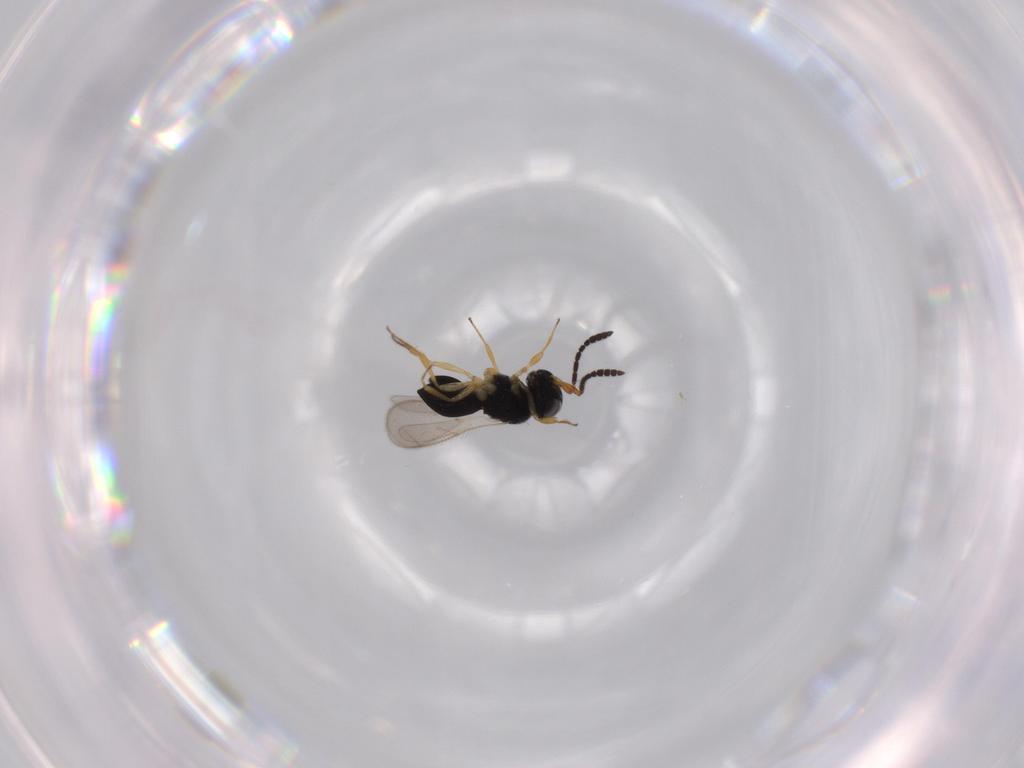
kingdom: Animalia
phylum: Arthropoda
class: Insecta
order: Hymenoptera
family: Scelionidae
